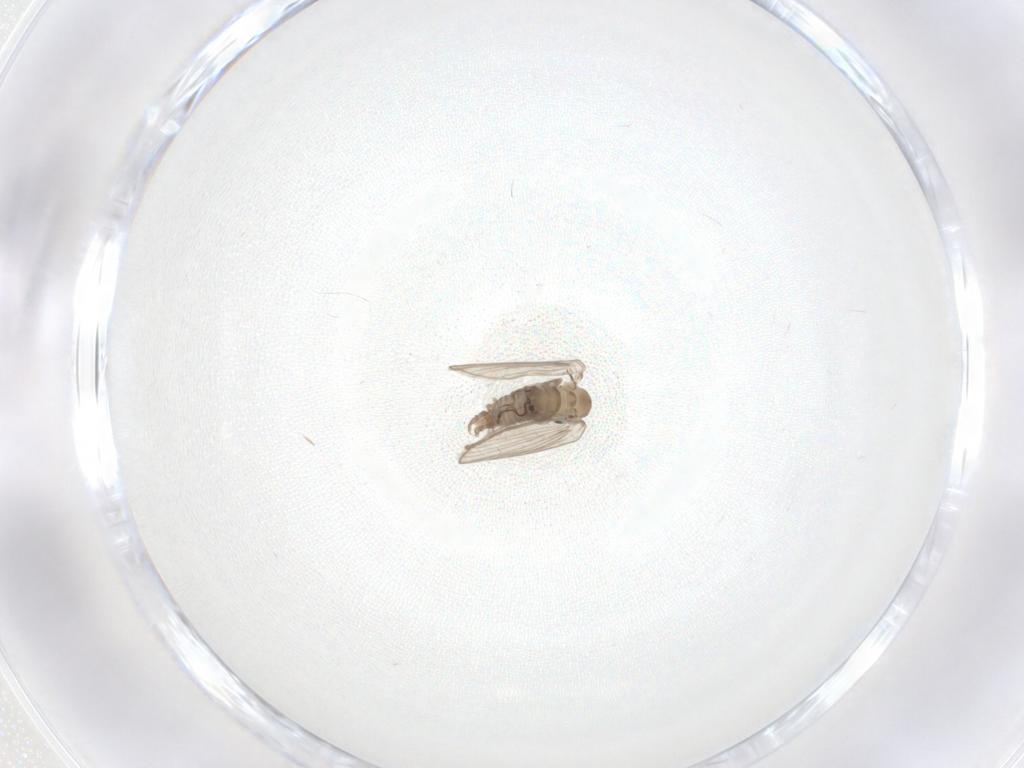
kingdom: Animalia
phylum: Arthropoda
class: Insecta
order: Diptera
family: Psychodidae
